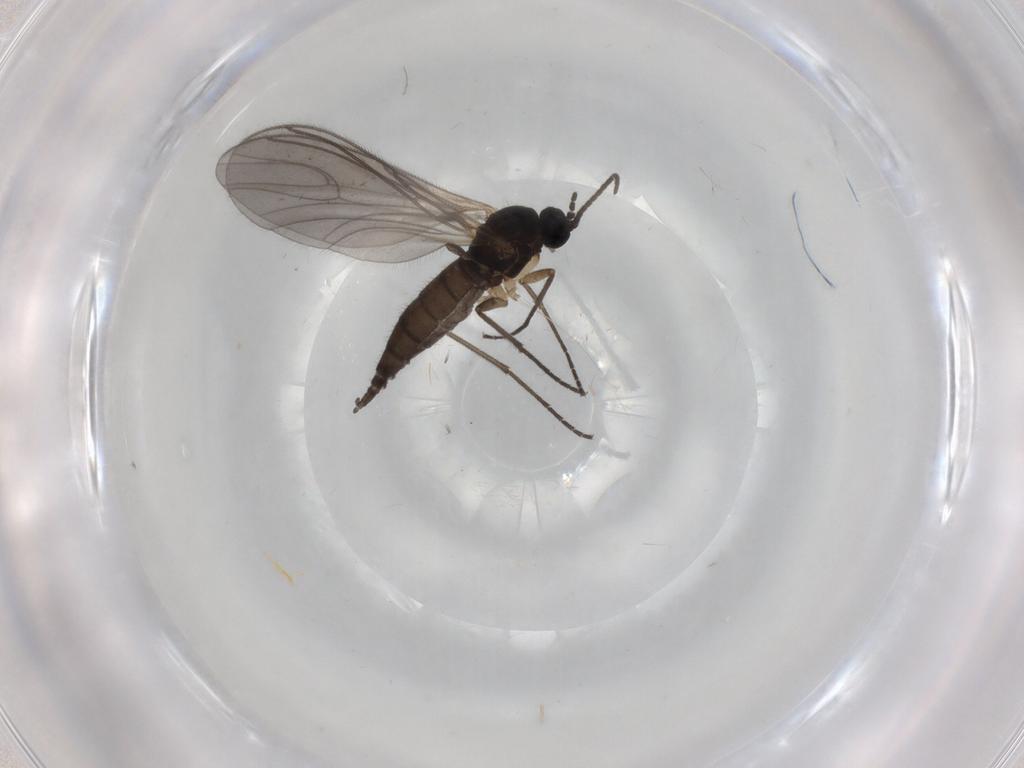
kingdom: Animalia
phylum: Arthropoda
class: Insecta
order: Diptera
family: Sciaridae
